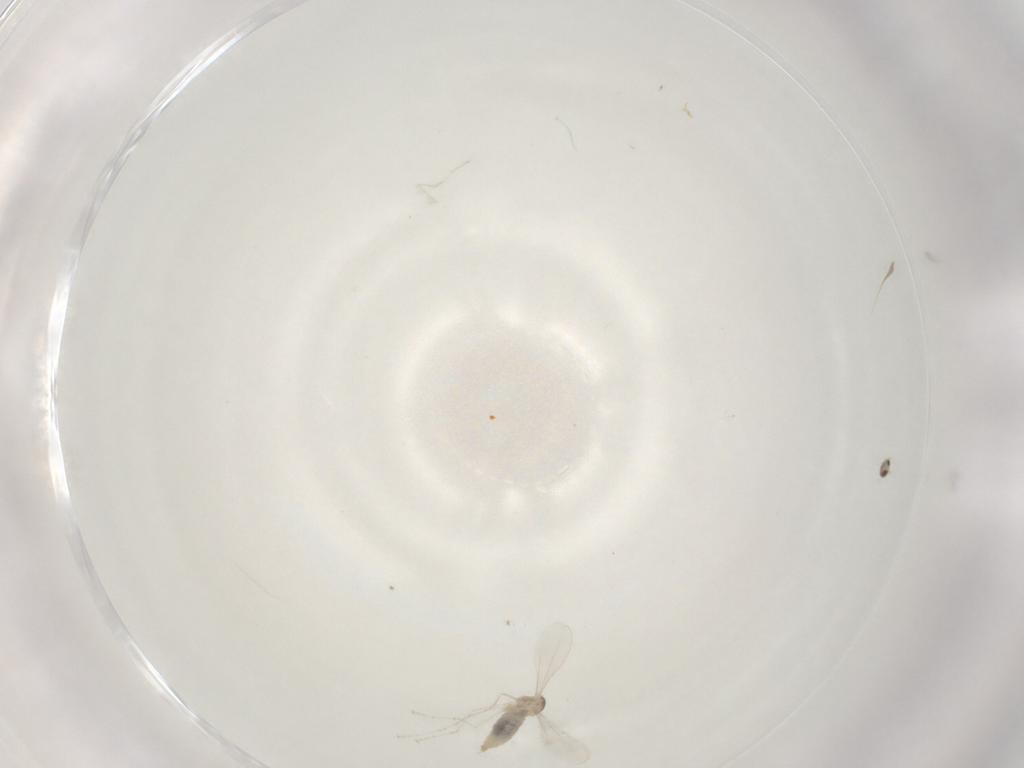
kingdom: Animalia
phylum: Arthropoda
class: Insecta
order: Diptera
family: Cecidomyiidae
